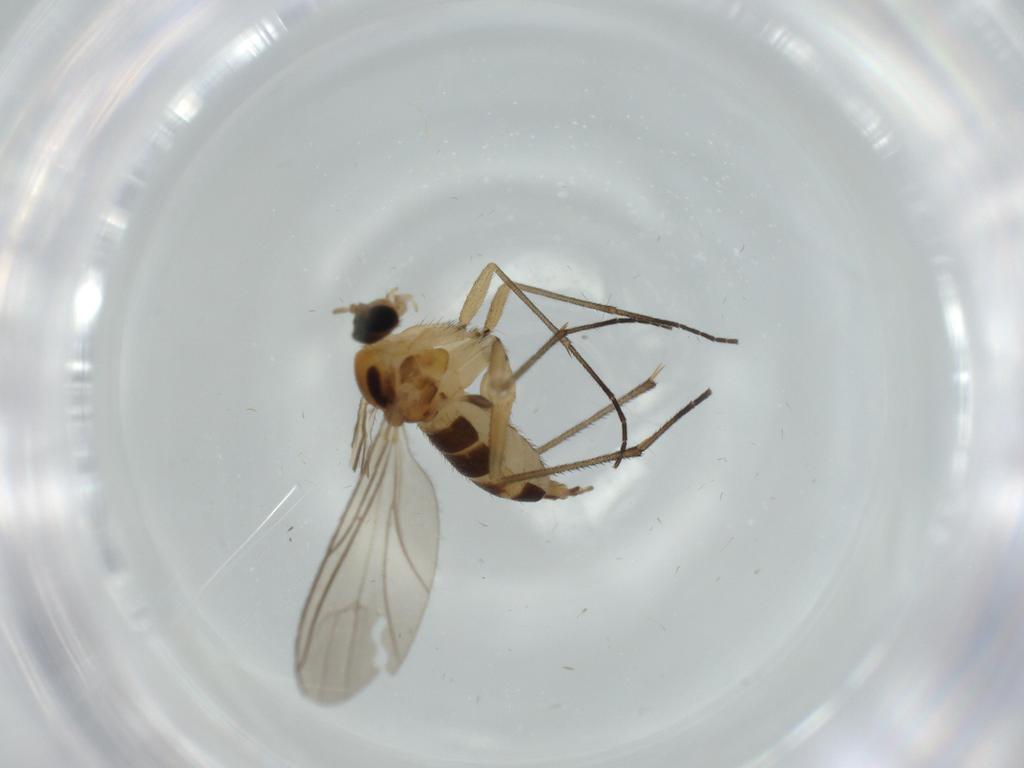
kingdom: Animalia
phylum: Arthropoda
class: Insecta
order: Diptera
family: Sciaridae
